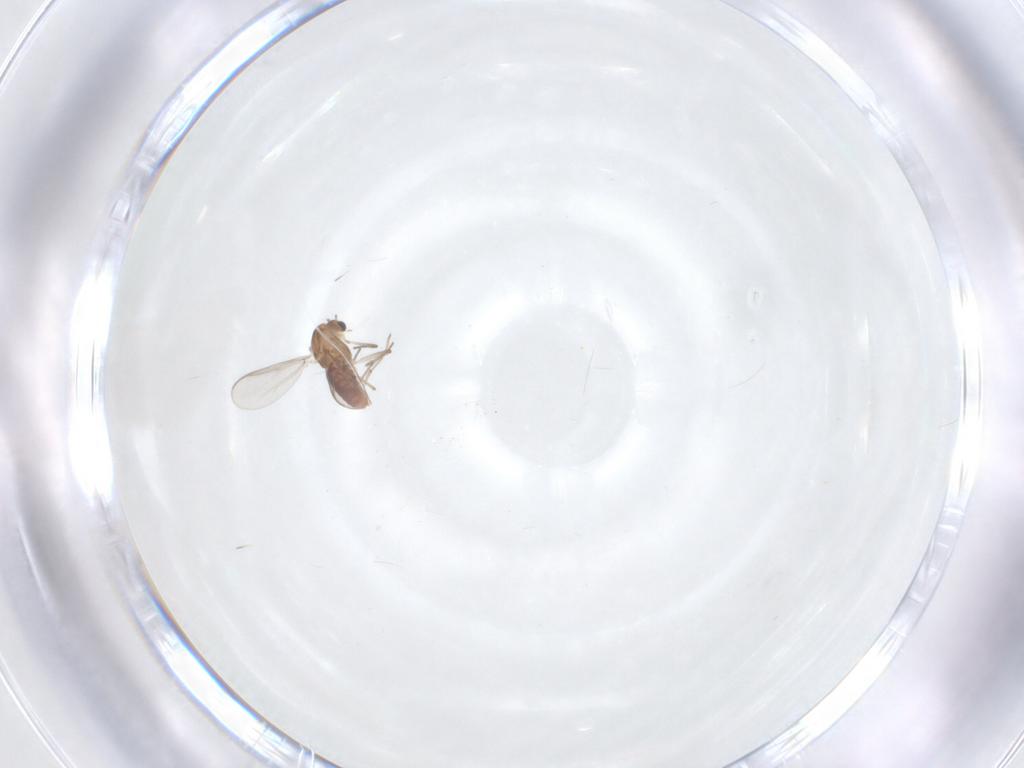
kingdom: Animalia
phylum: Arthropoda
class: Insecta
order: Diptera
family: Chironomidae
